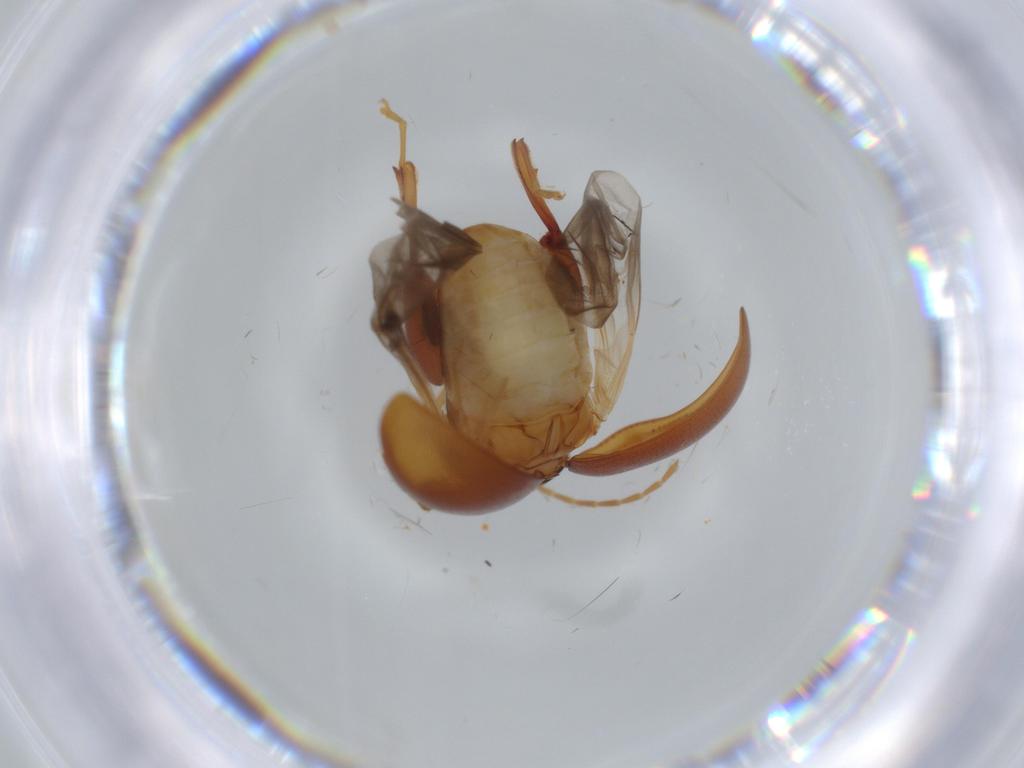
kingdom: Animalia
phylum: Arthropoda
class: Insecta
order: Coleoptera
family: Chrysomelidae
